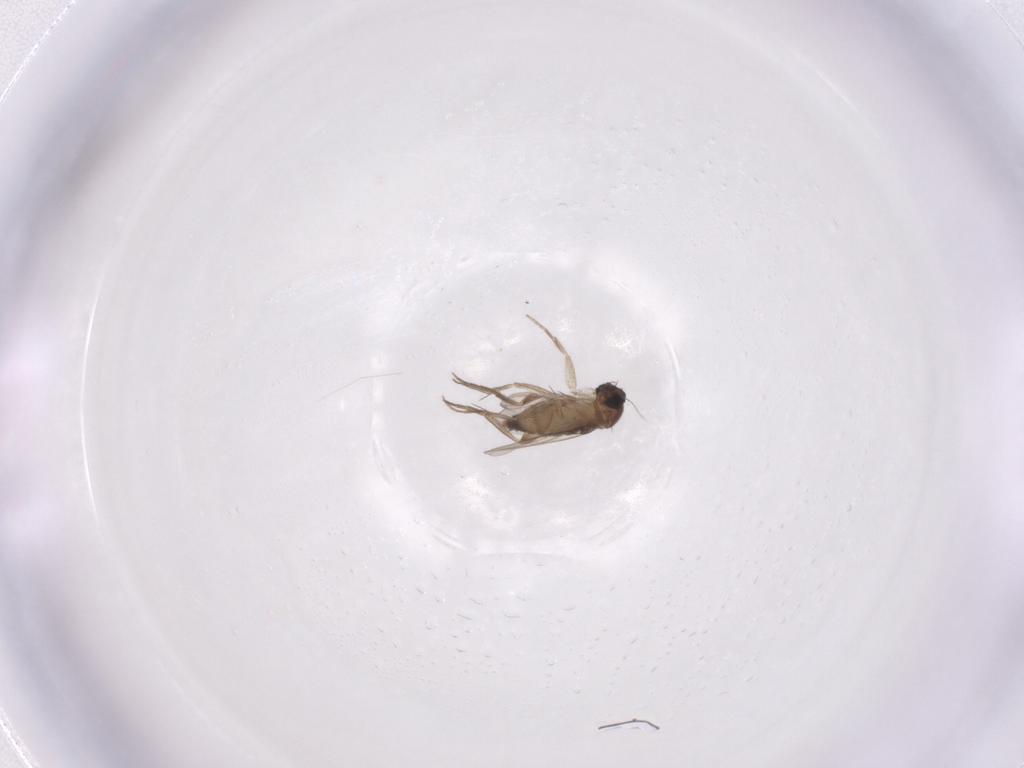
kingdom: Animalia
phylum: Arthropoda
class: Insecta
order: Diptera
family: Phoridae
